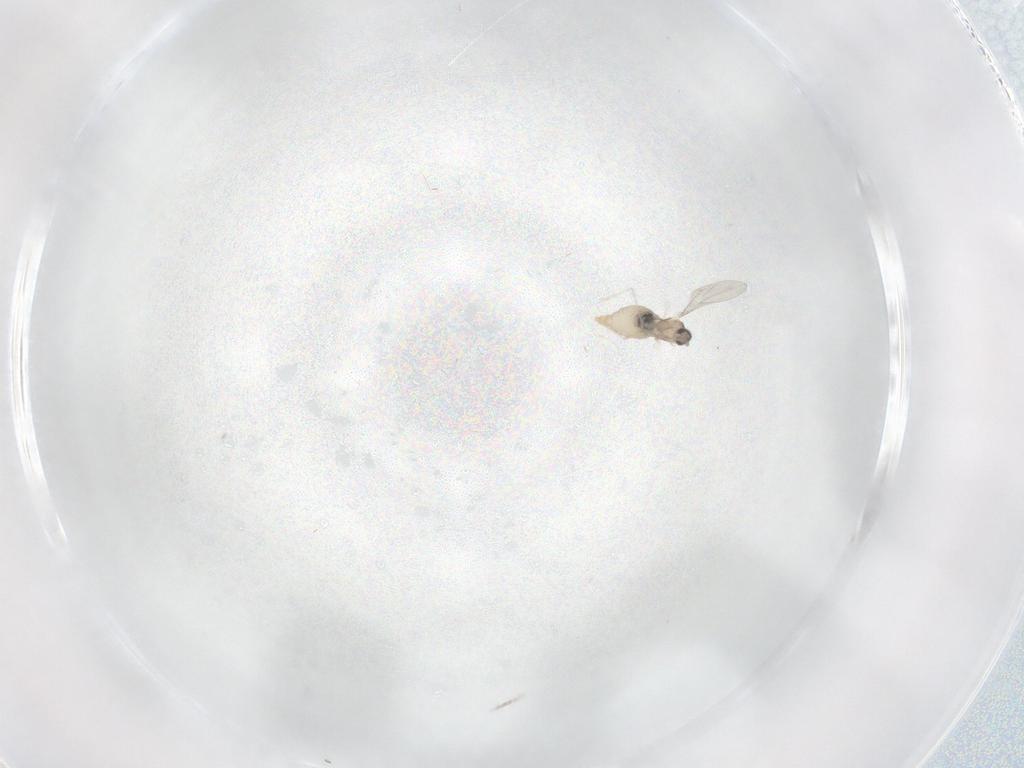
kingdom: Animalia
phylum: Arthropoda
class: Insecta
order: Diptera
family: Cecidomyiidae
